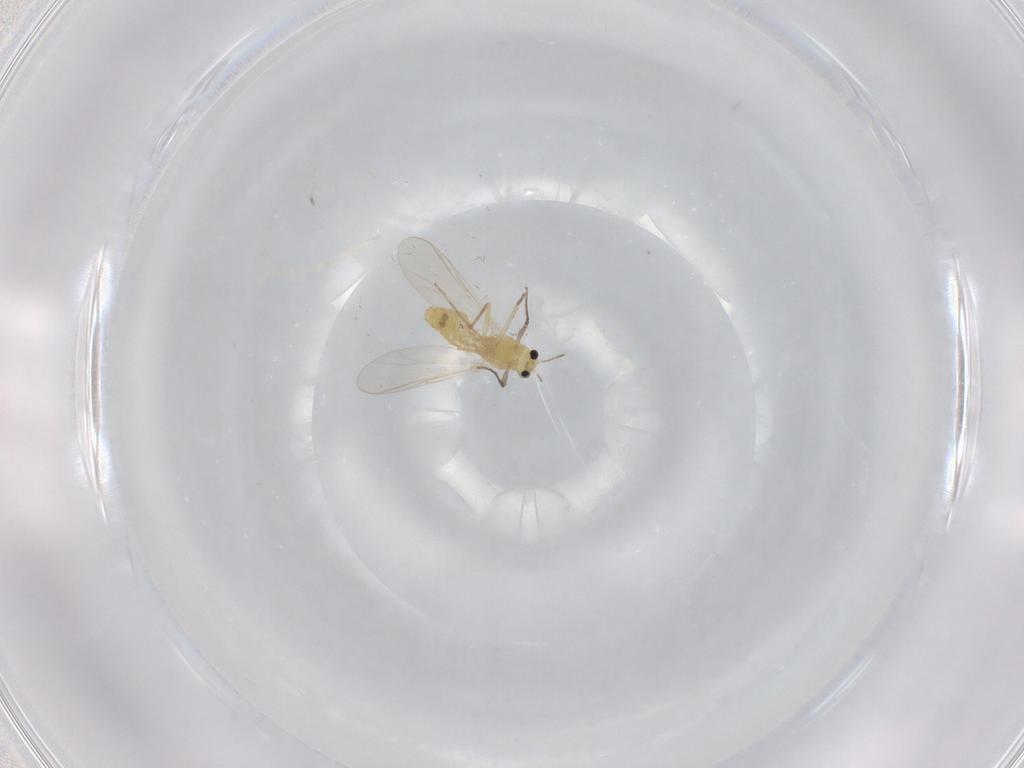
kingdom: Animalia
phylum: Arthropoda
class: Insecta
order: Diptera
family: Chironomidae
